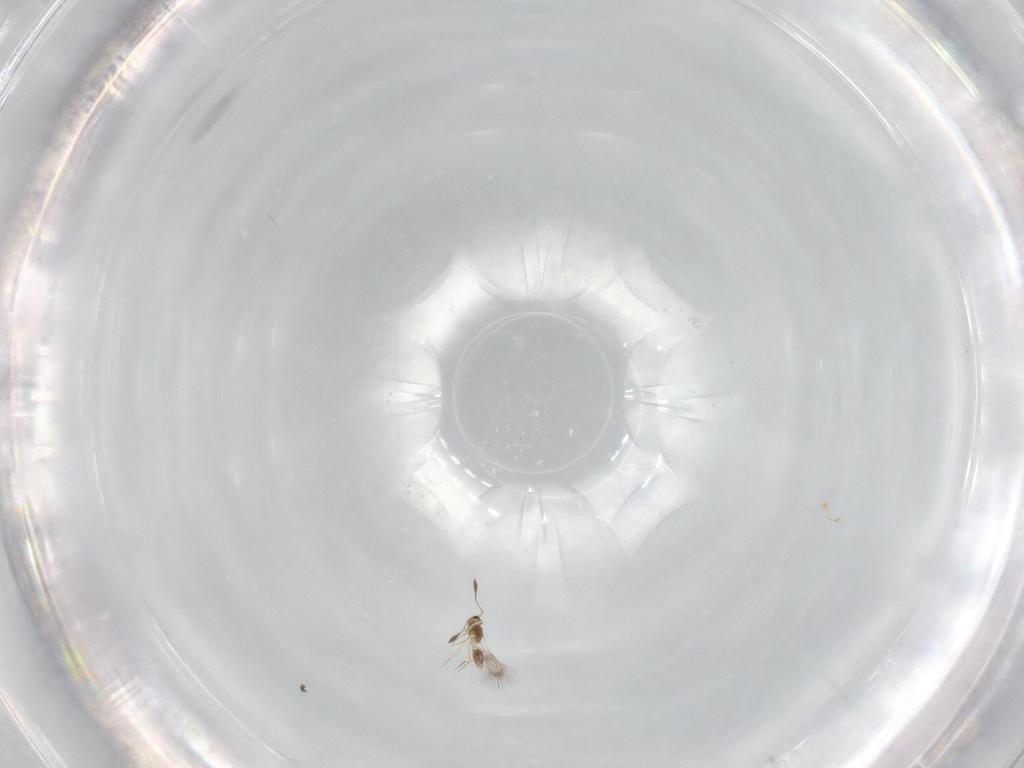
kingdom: Animalia
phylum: Arthropoda
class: Insecta
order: Hymenoptera
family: Mymarommatidae
